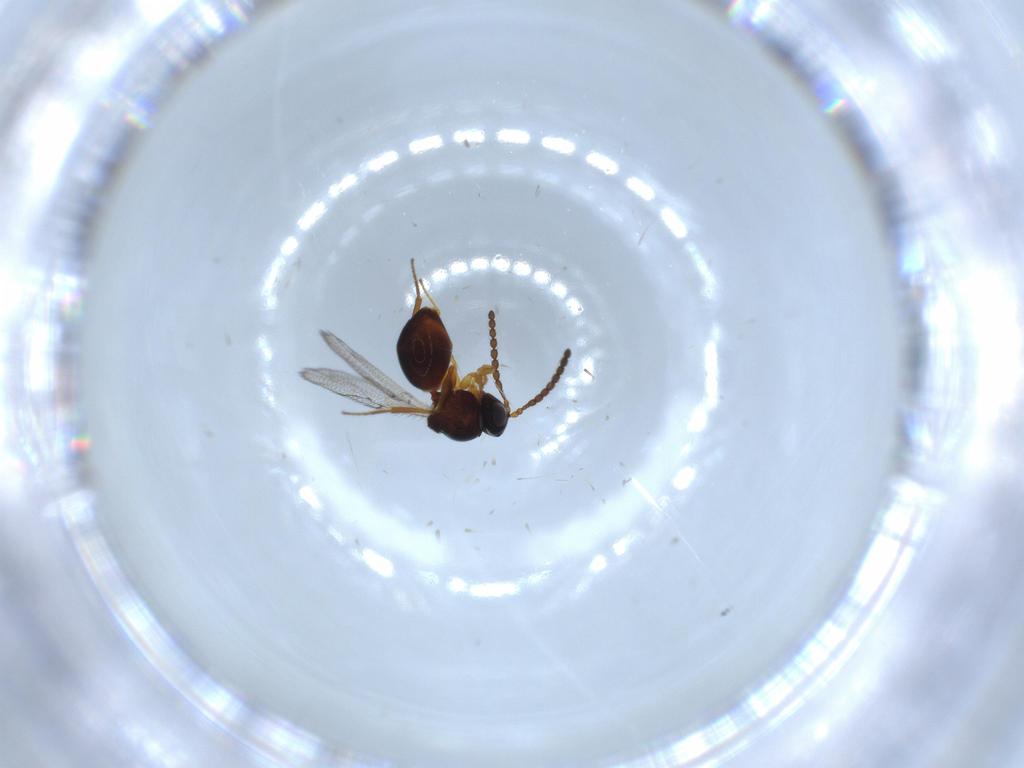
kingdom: Animalia
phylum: Arthropoda
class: Insecta
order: Hymenoptera
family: Figitidae
